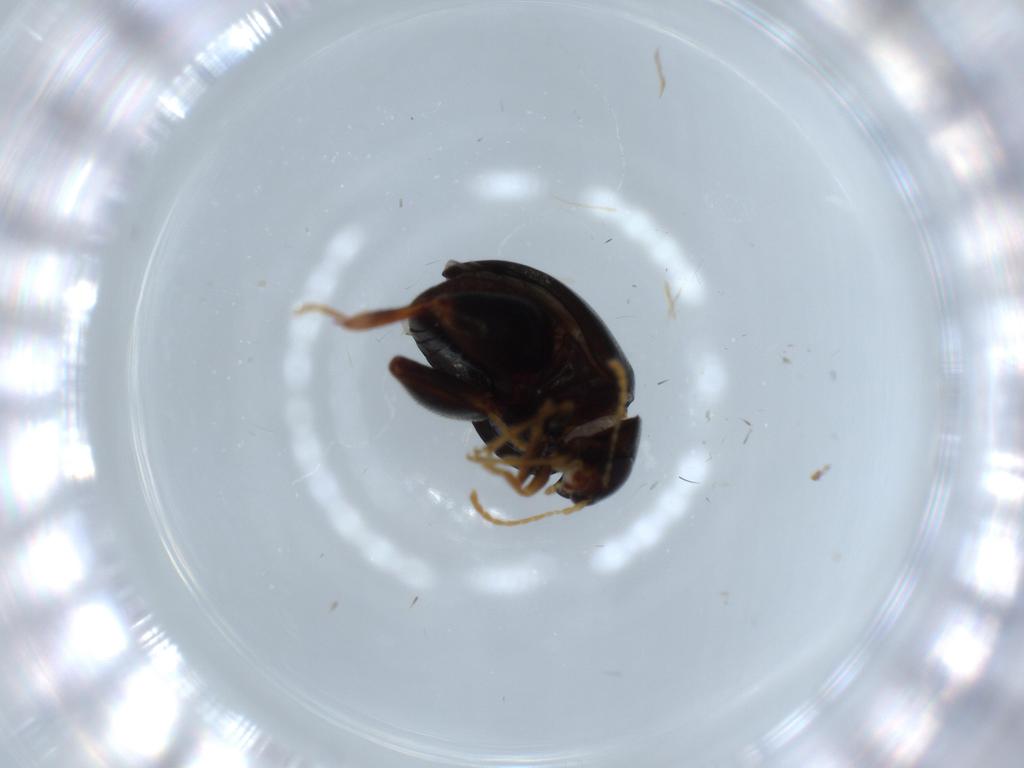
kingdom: Animalia
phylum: Arthropoda
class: Insecta
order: Coleoptera
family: Chrysomelidae
